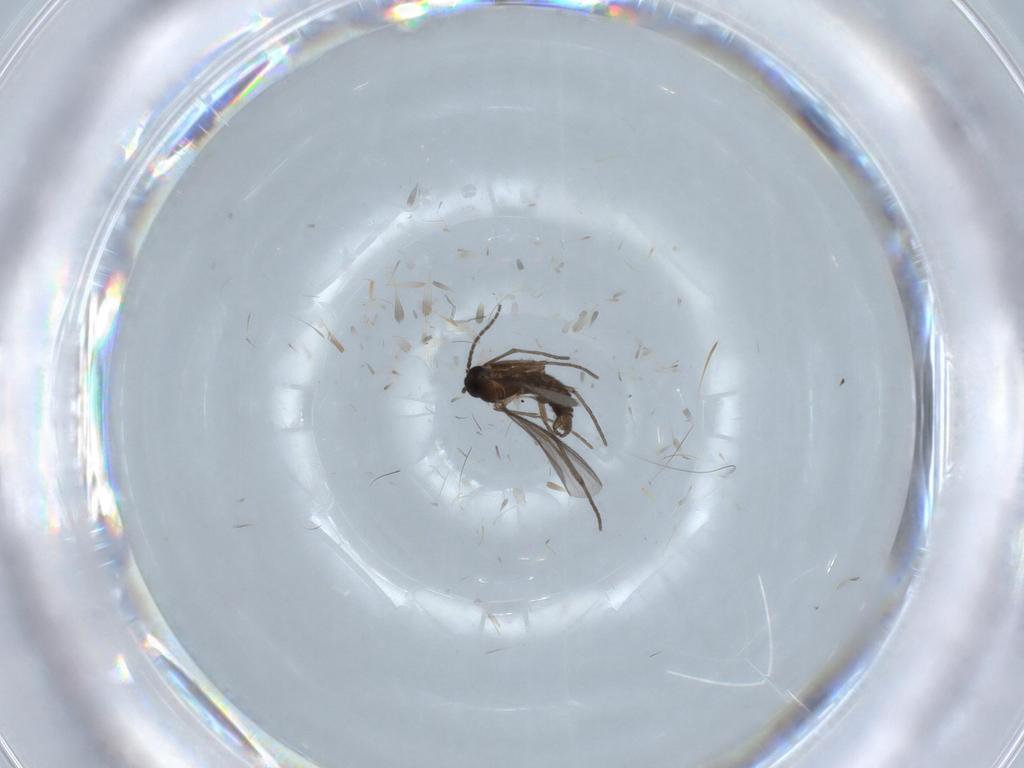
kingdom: Animalia
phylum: Arthropoda
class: Insecta
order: Diptera
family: Sciaridae
